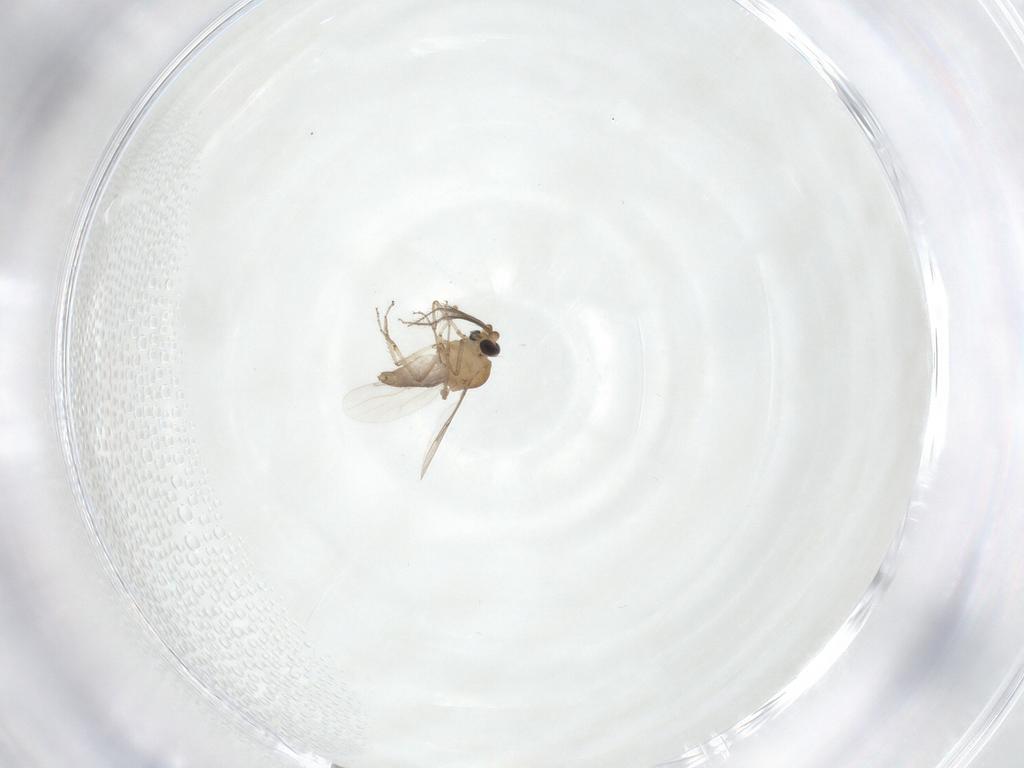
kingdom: Animalia
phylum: Arthropoda
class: Insecta
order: Diptera
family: Ceratopogonidae
